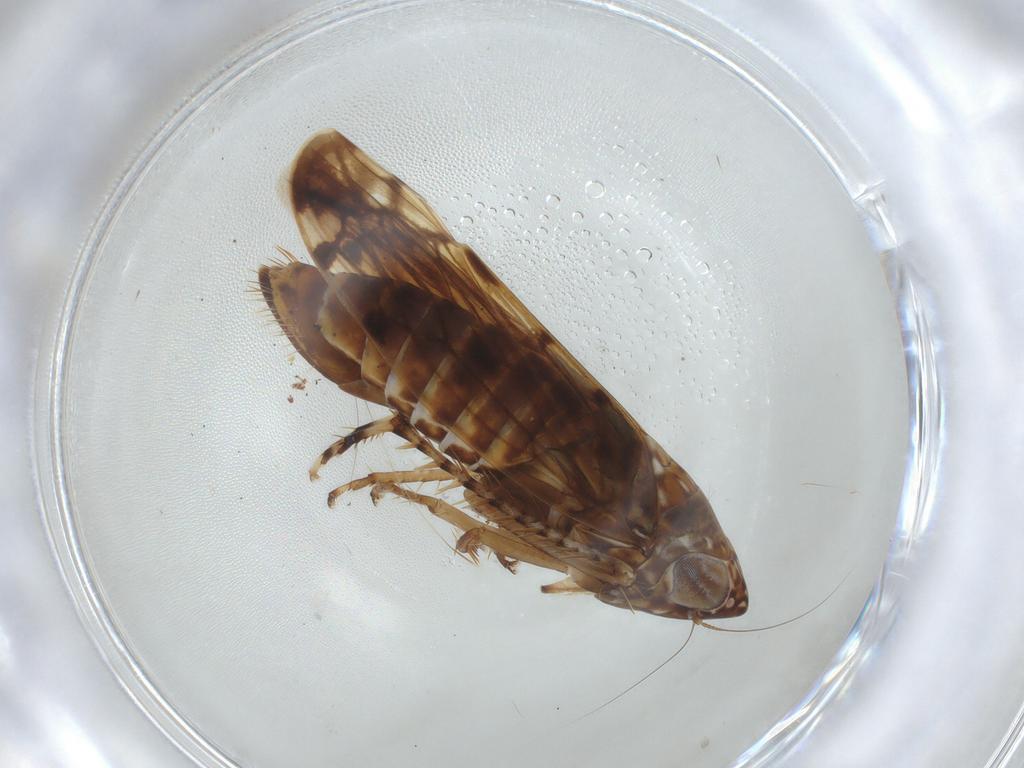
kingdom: Animalia
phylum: Arthropoda
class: Insecta
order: Hemiptera
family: Cicadellidae
